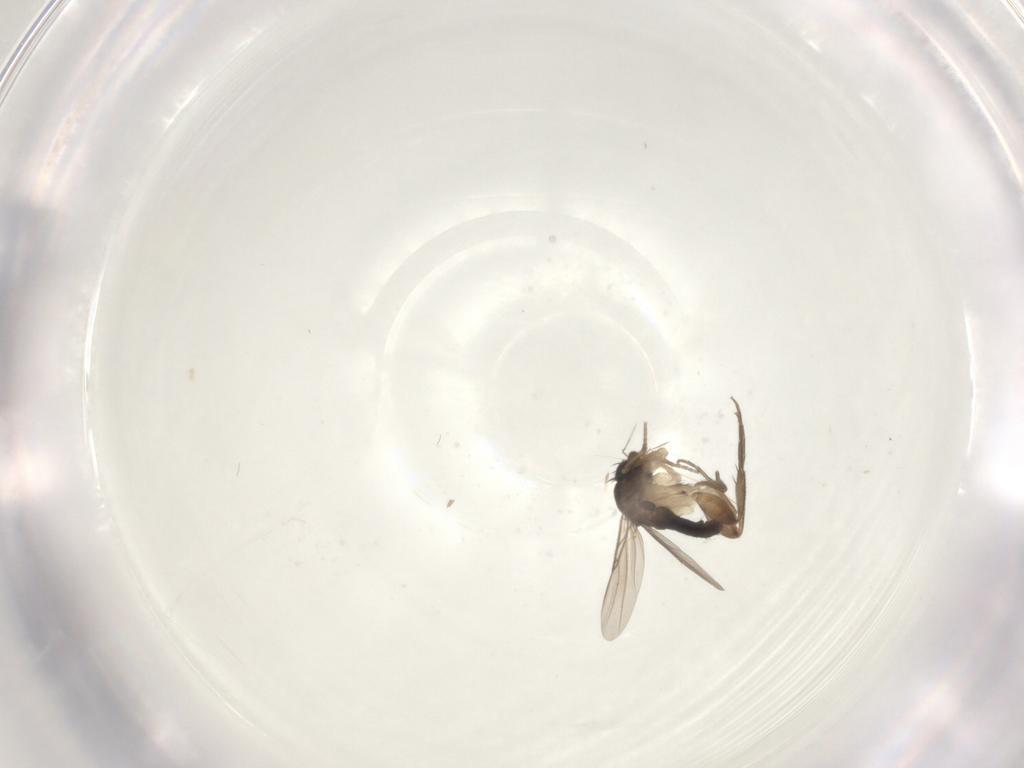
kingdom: Animalia
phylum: Arthropoda
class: Insecta
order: Diptera
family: Phoridae
